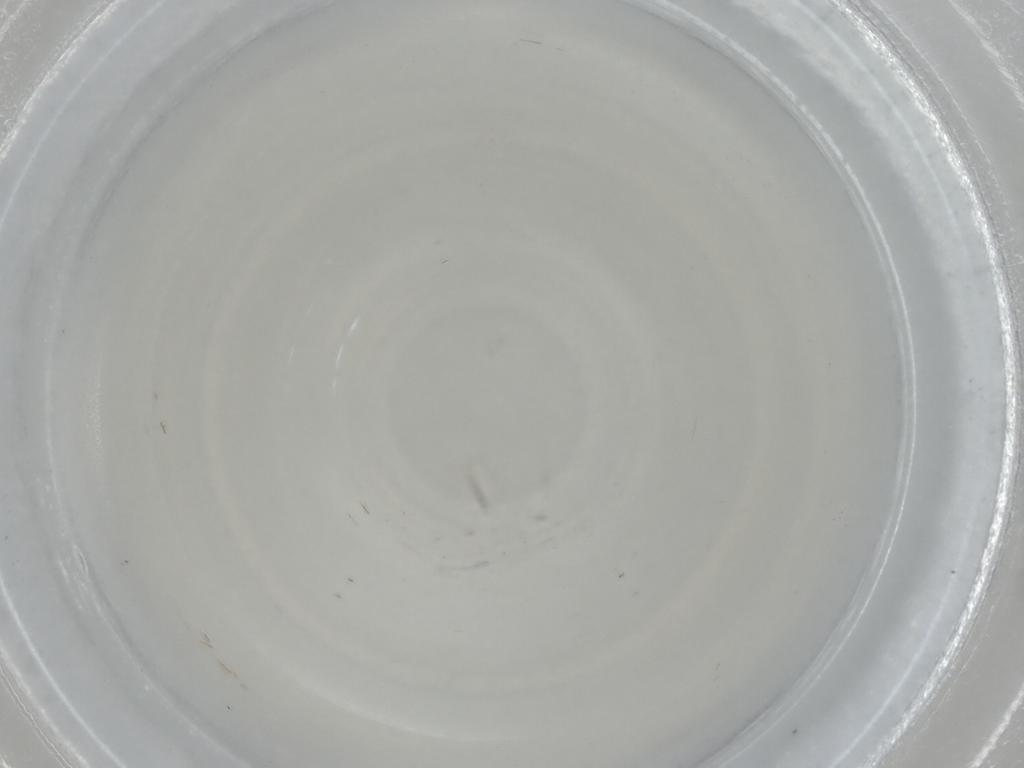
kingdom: Animalia
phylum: Arthropoda
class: Insecta
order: Diptera
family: Chironomidae
